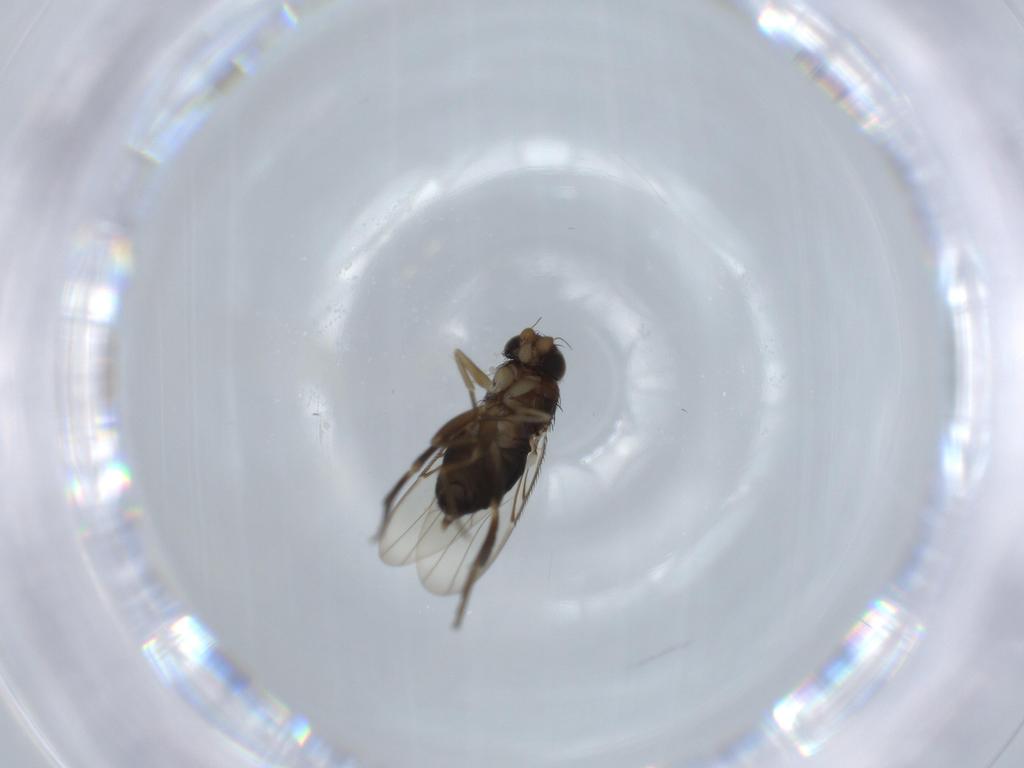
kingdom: Animalia
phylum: Arthropoda
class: Insecta
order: Diptera
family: Phoridae
